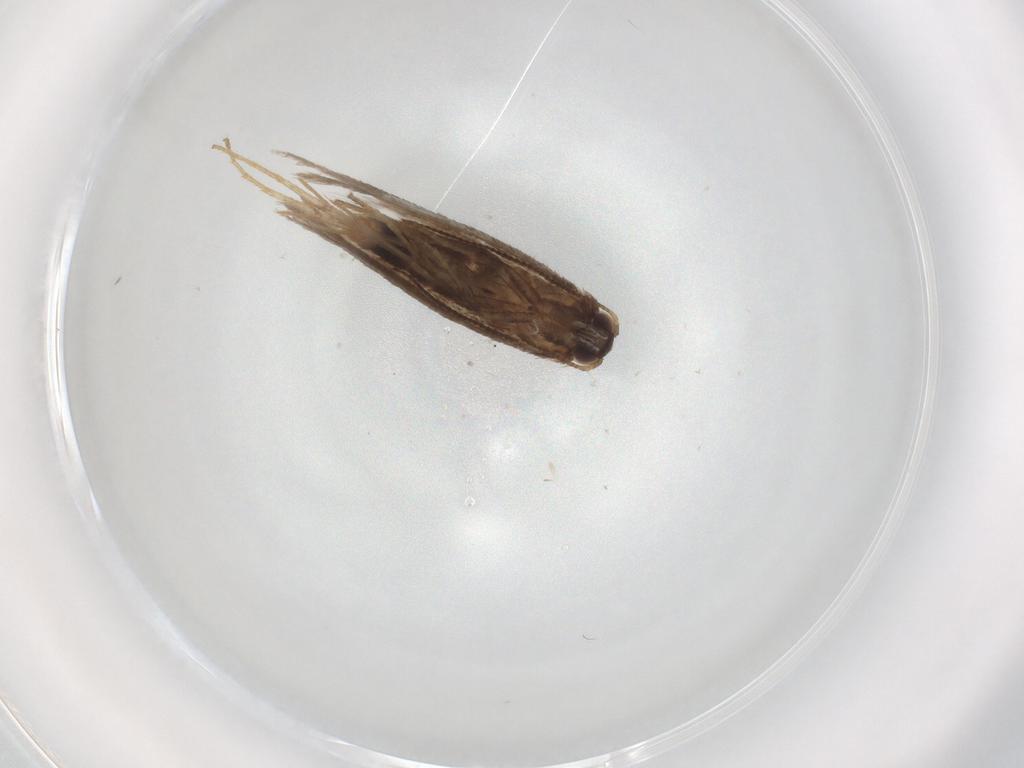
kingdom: Animalia
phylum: Arthropoda
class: Insecta
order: Lepidoptera
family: Nepticulidae
